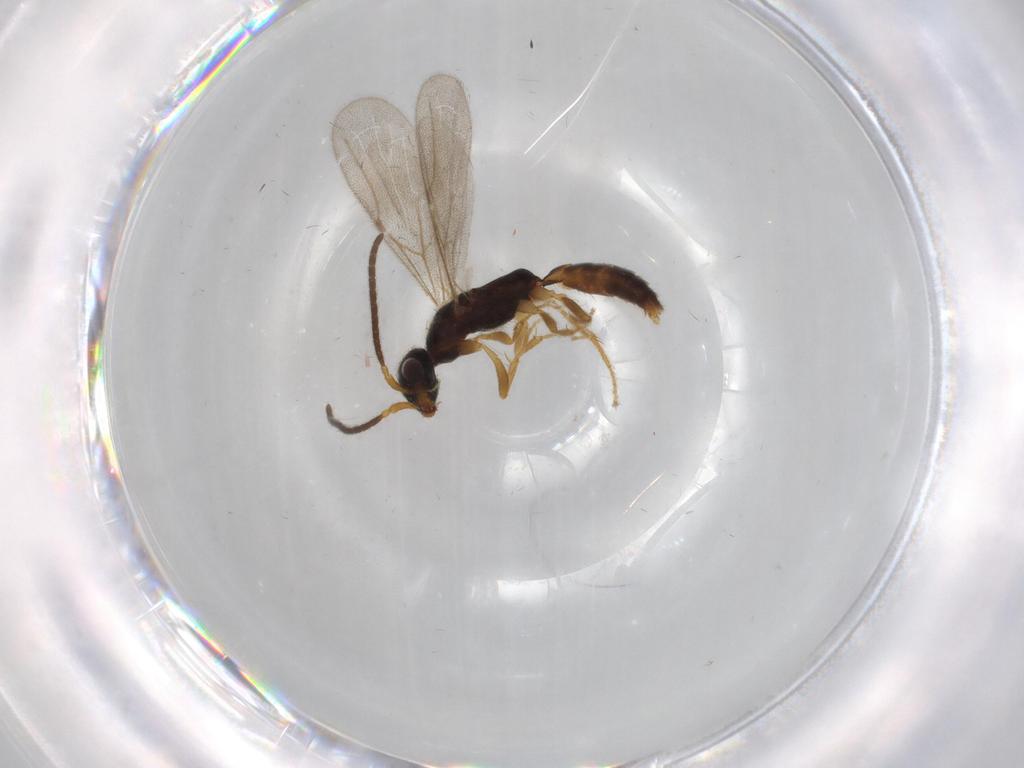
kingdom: Animalia
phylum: Arthropoda
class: Insecta
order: Hymenoptera
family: Bethylidae
